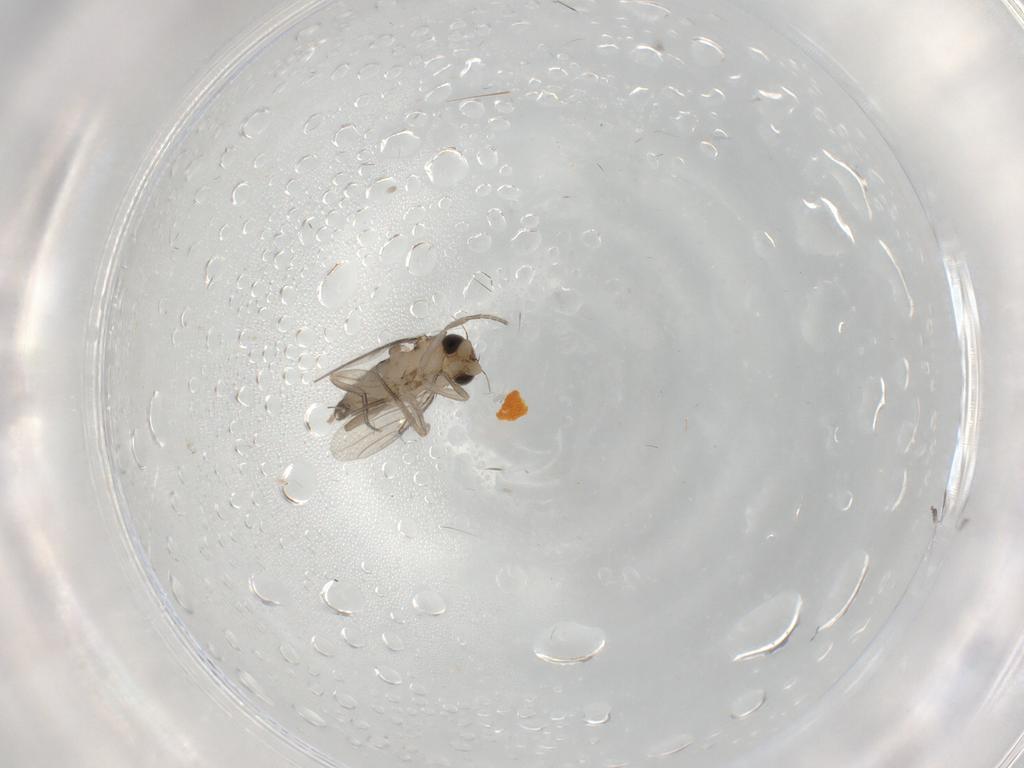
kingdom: Animalia
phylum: Arthropoda
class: Insecta
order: Diptera
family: Phoridae
